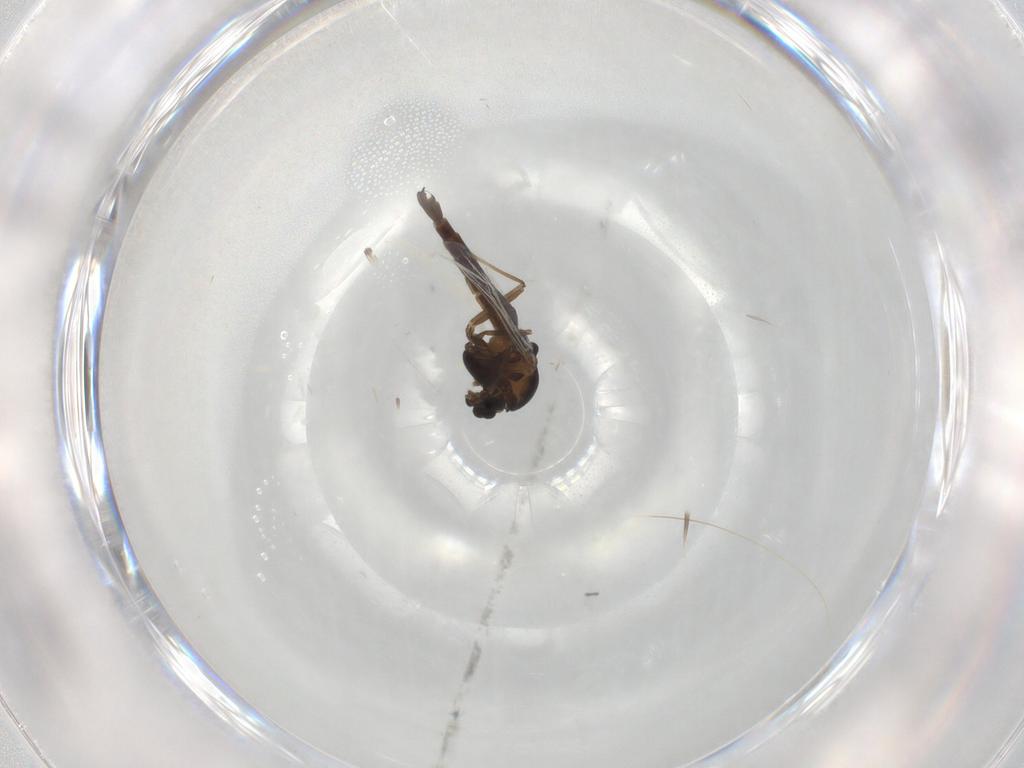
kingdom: Animalia
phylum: Arthropoda
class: Insecta
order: Diptera
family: Chironomidae
